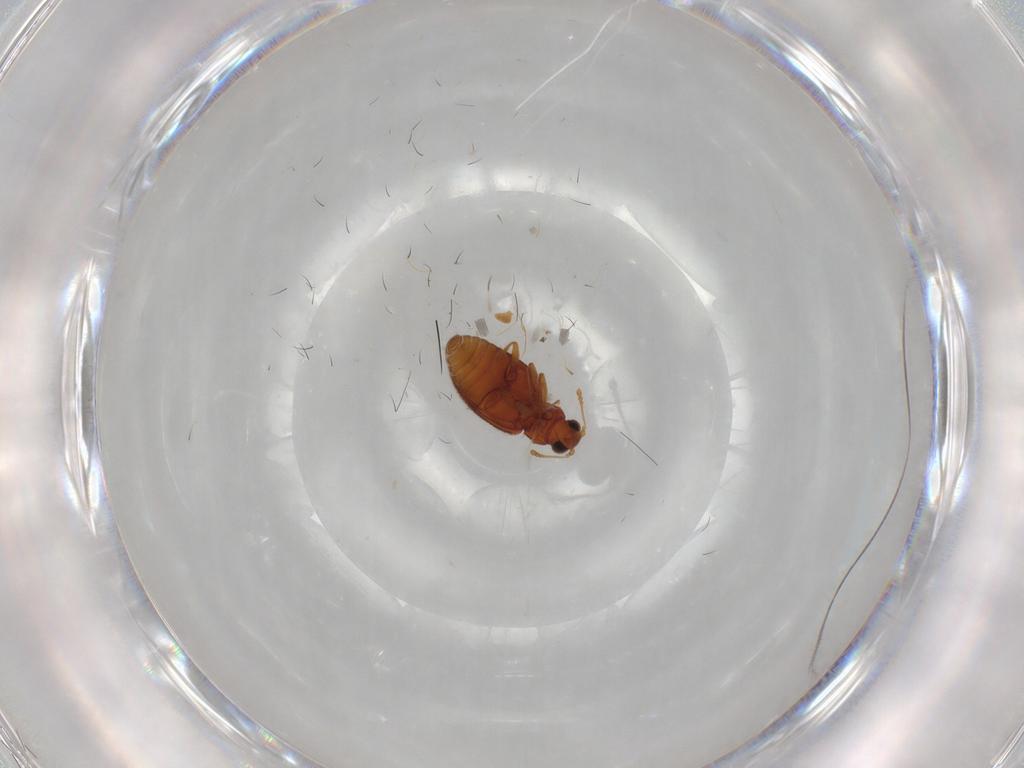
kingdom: Animalia
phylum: Arthropoda
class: Insecta
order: Coleoptera
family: Latridiidae
